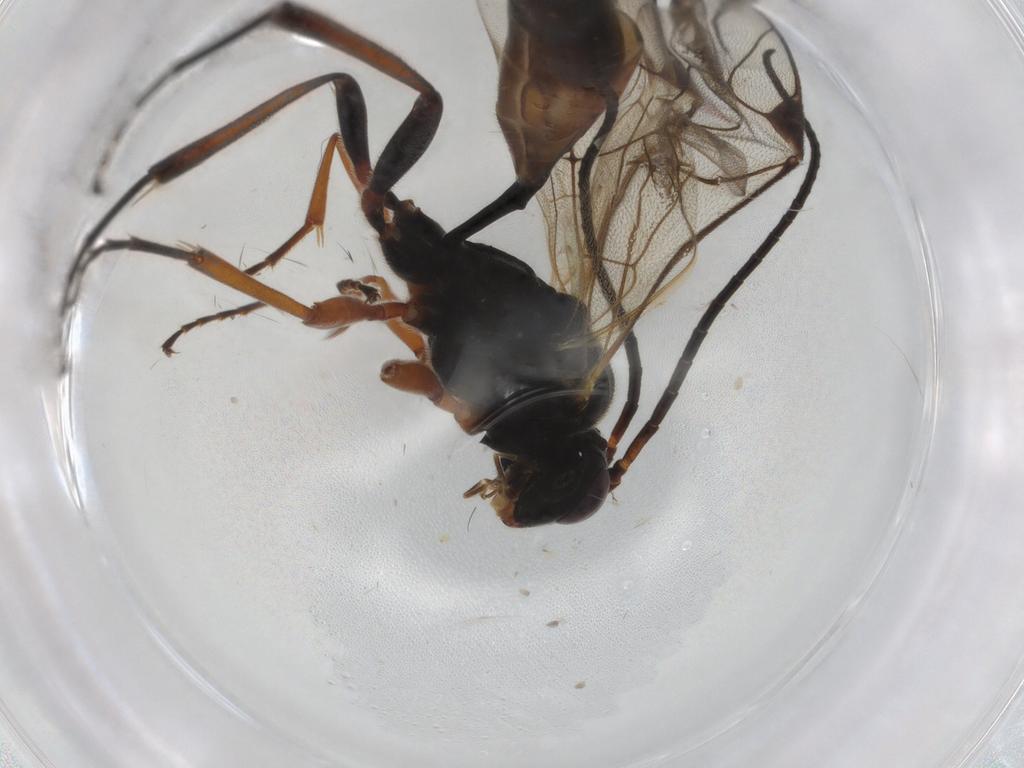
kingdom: Animalia
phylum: Arthropoda
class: Insecta
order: Hymenoptera
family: Ichneumonidae
